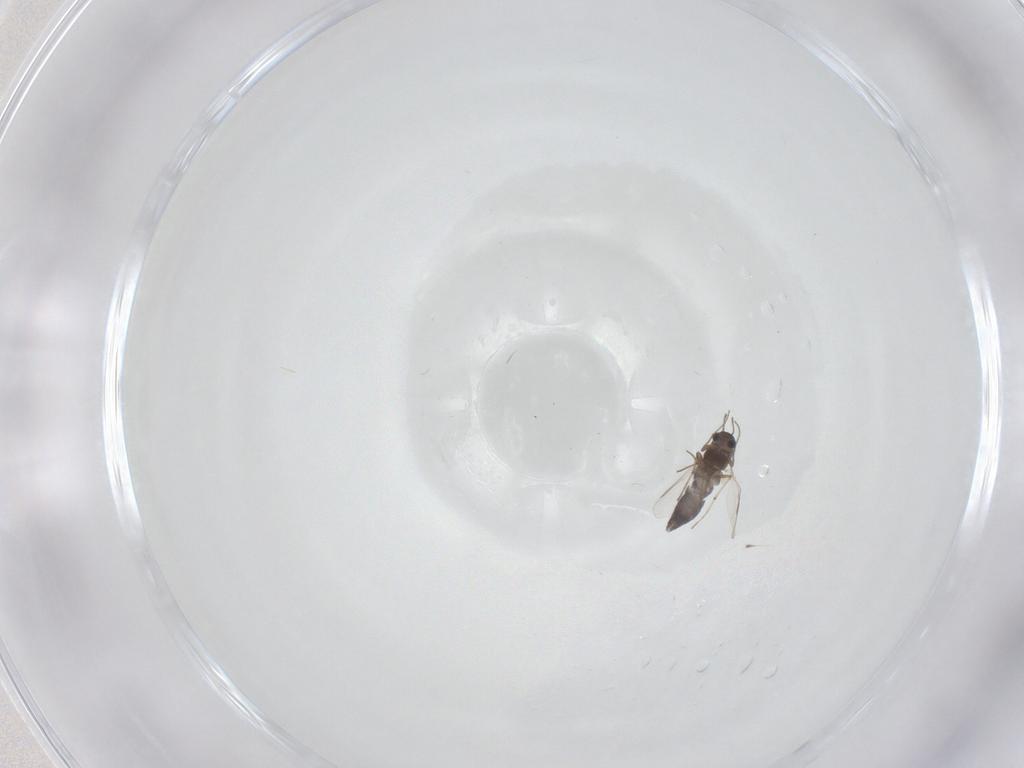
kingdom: Animalia
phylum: Arthropoda
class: Insecta
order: Diptera
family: Chironomidae
